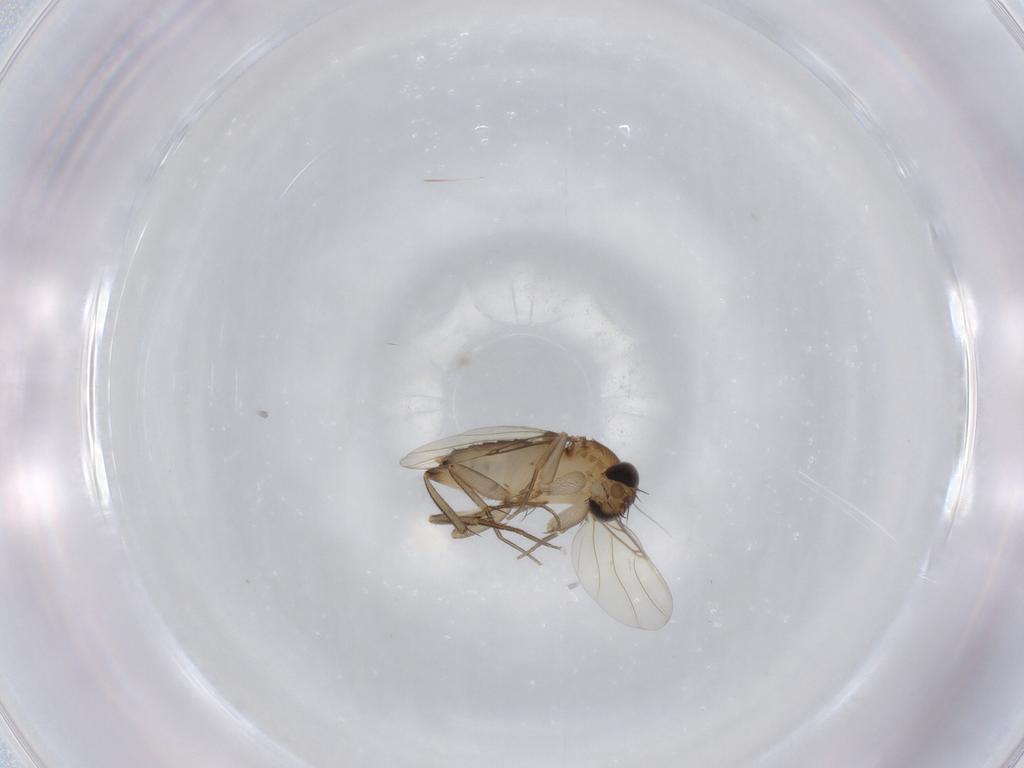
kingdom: Animalia
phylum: Arthropoda
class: Insecta
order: Diptera
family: Phoridae
